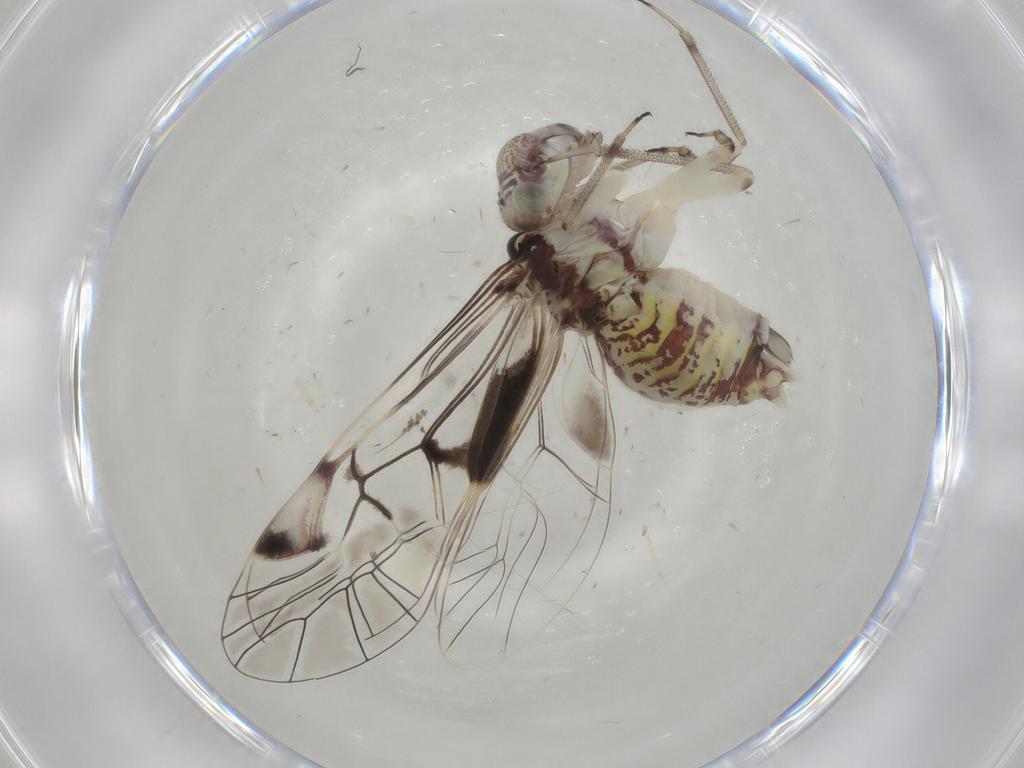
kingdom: Animalia
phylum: Arthropoda
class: Insecta
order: Psocodea
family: Psocidae
